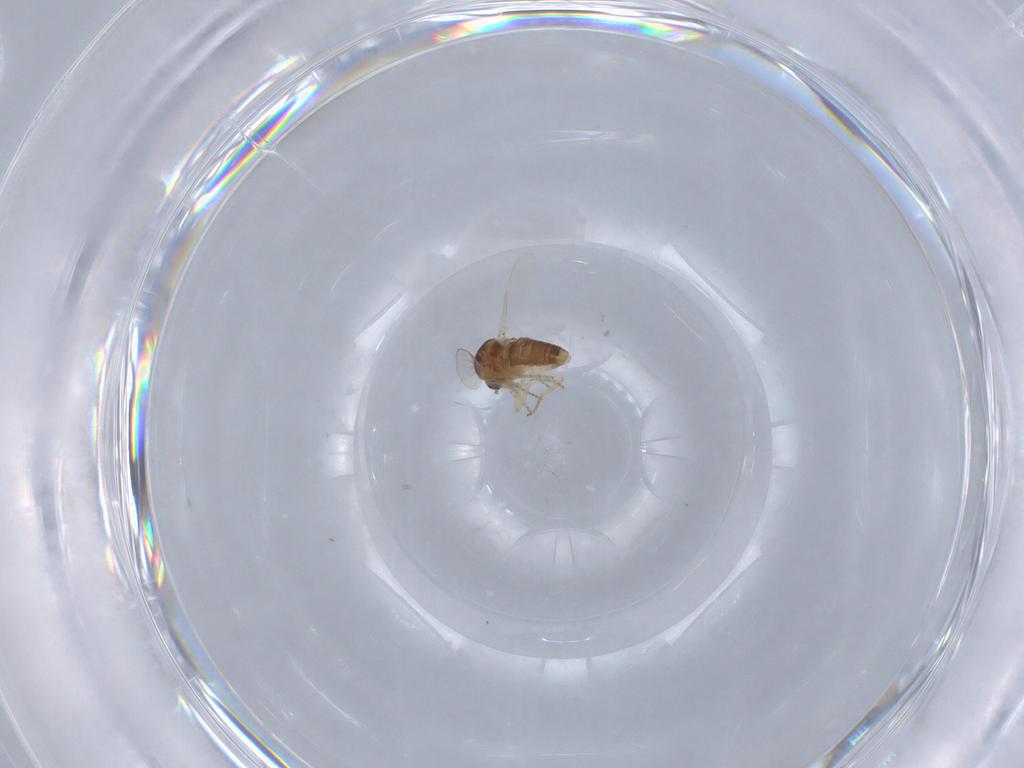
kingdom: Animalia
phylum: Arthropoda
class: Insecta
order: Diptera
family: Ceratopogonidae
